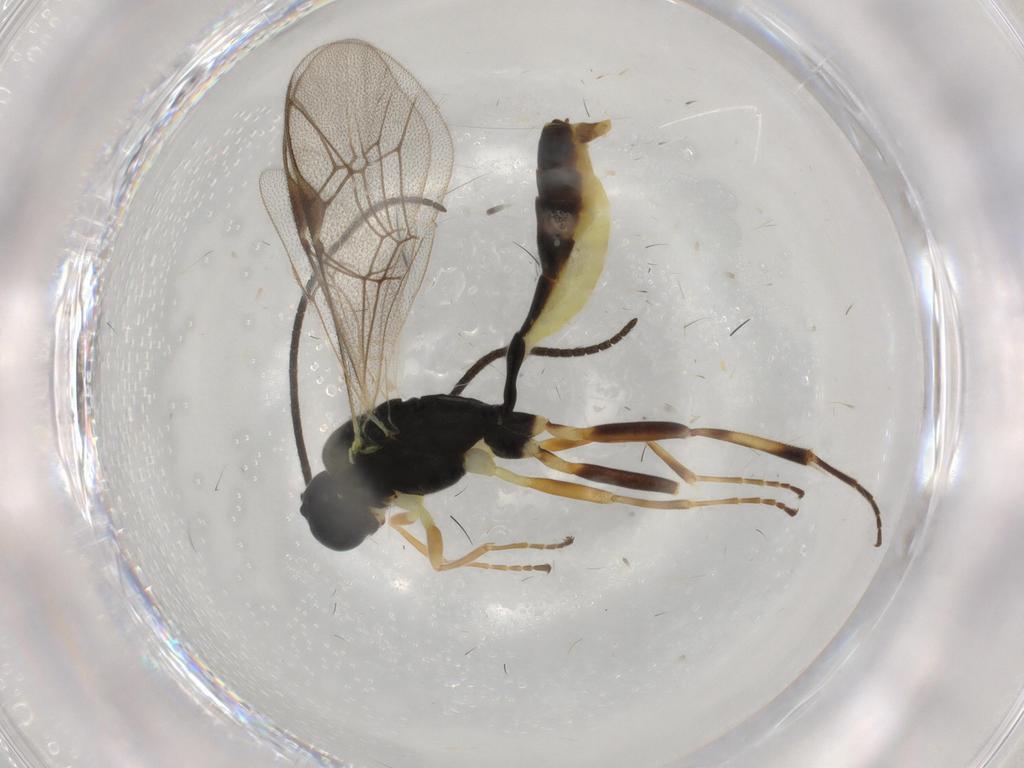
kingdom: Animalia
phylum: Arthropoda
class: Insecta
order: Hymenoptera
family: Ichneumonidae
